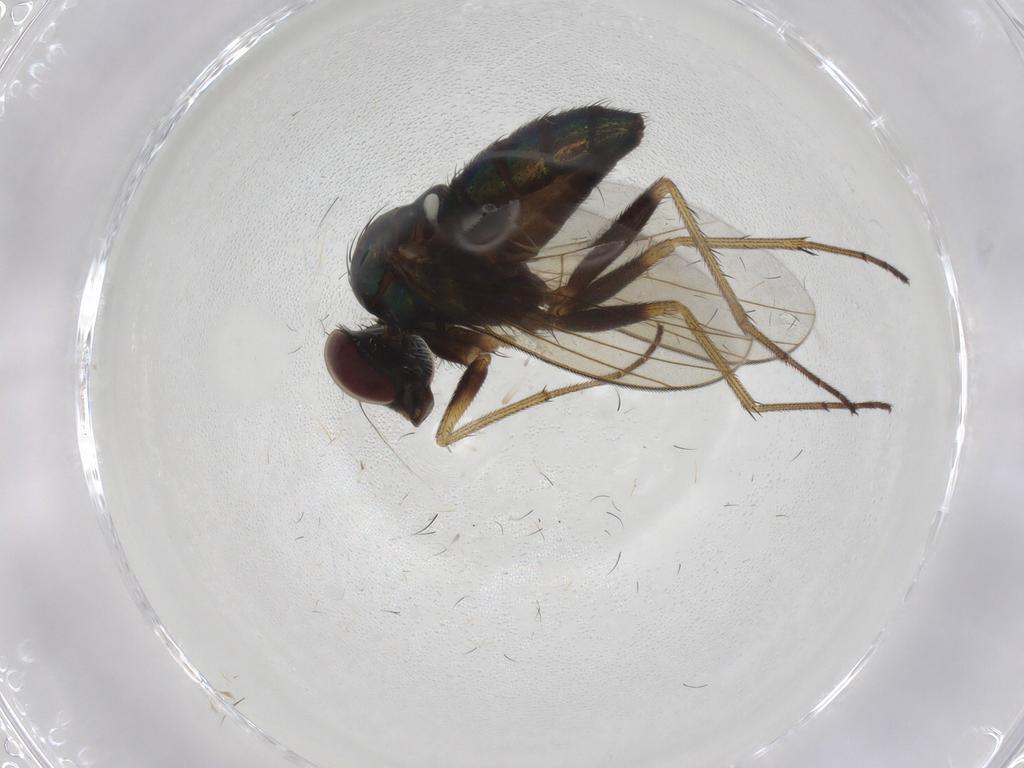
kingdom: Animalia
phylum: Arthropoda
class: Insecta
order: Diptera
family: Dolichopodidae
